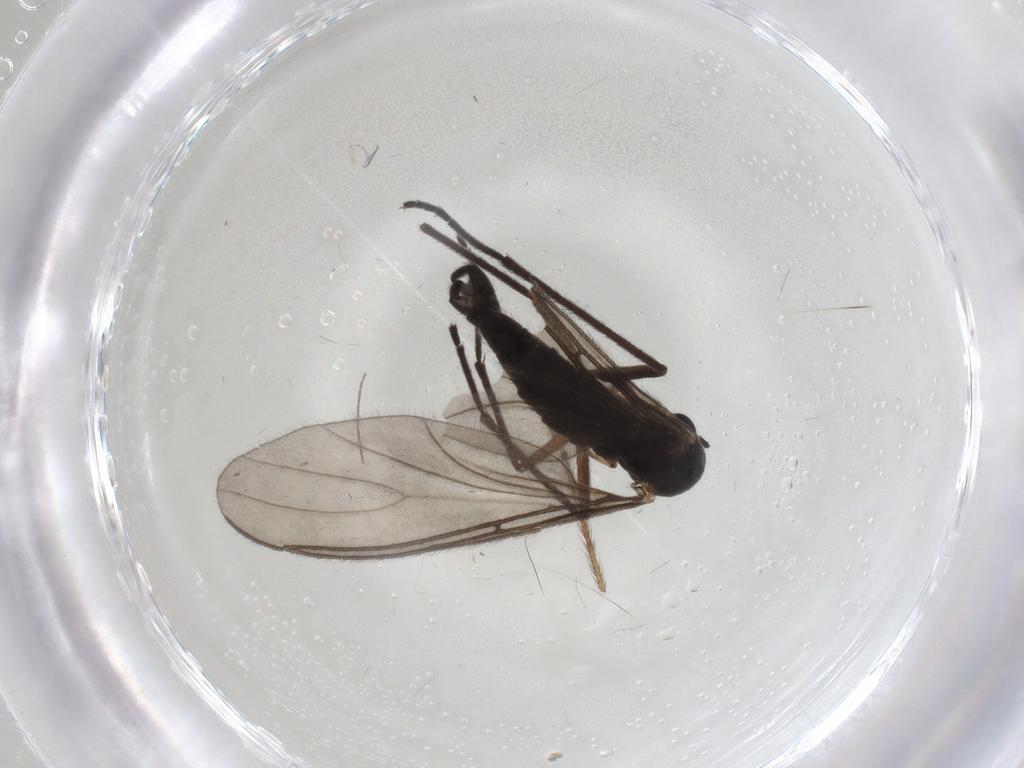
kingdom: Animalia
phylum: Arthropoda
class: Insecta
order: Diptera
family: Sciaridae
